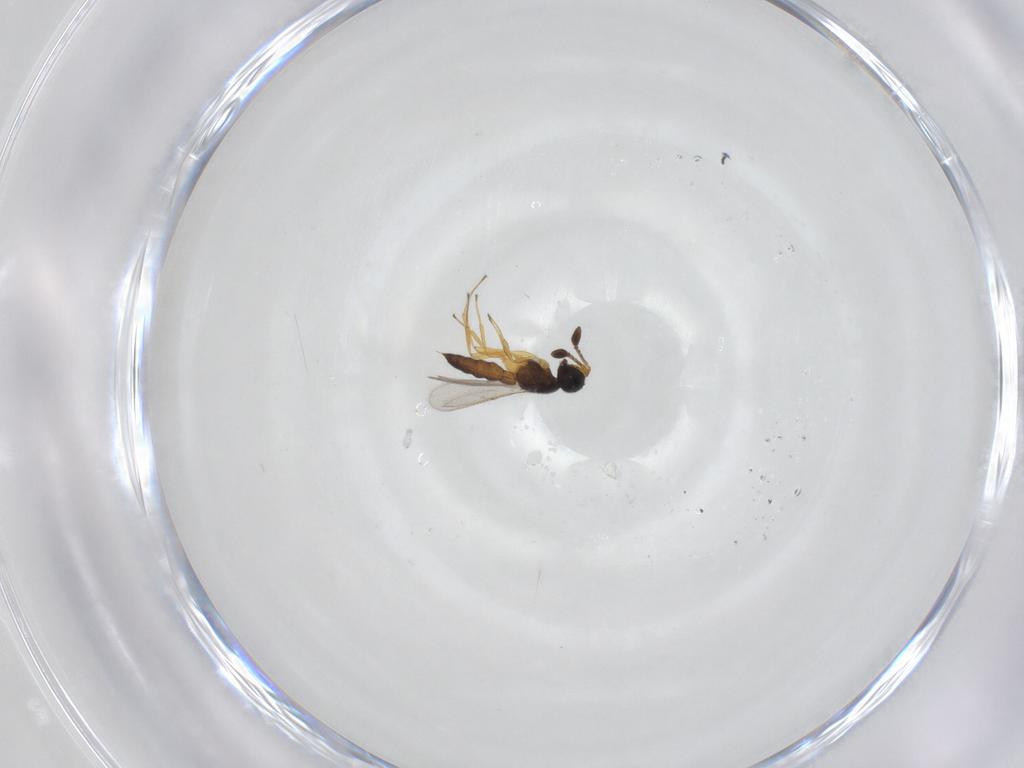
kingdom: Animalia
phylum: Arthropoda
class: Insecta
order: Hymenoptera
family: Scelionidae
